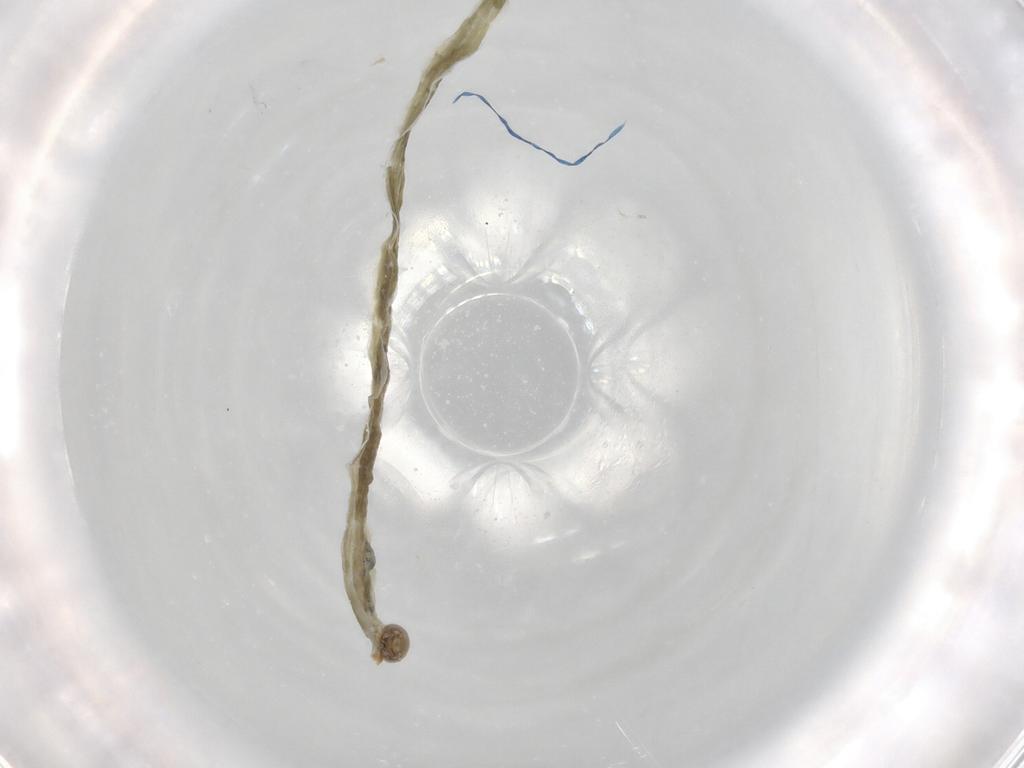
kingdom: Animalia
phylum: Arthropoda
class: Insecta
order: Diptera
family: Chironomidae
